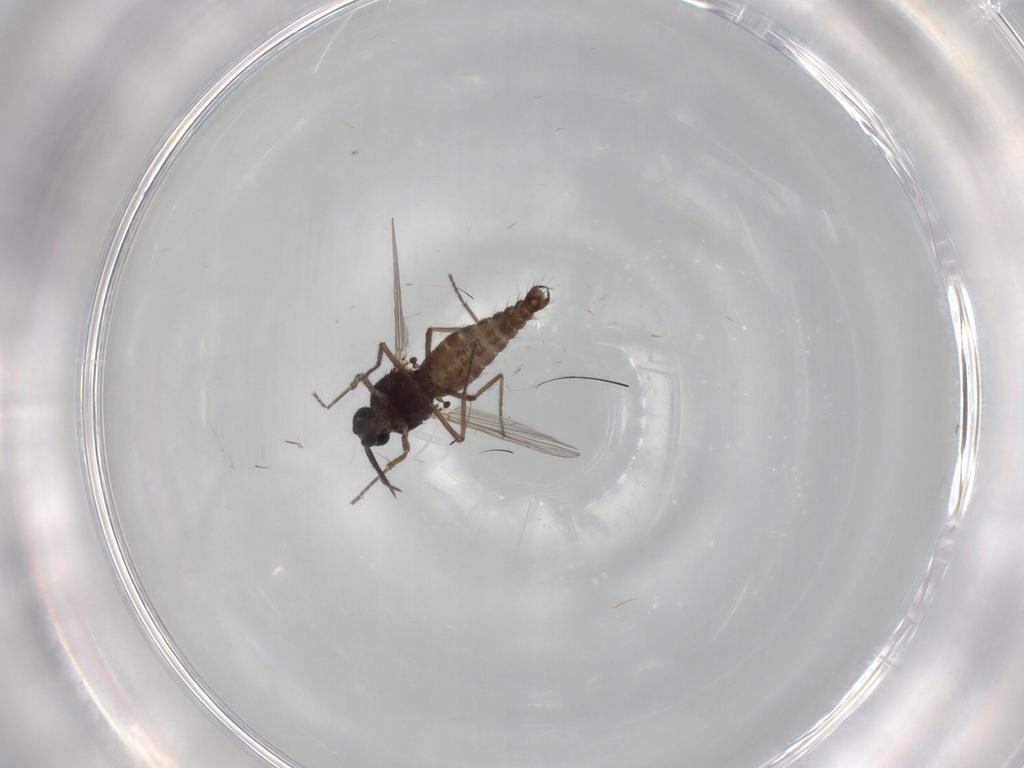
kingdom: Animalia
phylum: Arthropoda
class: Insecta
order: Diptera
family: Ceratopogonidae
